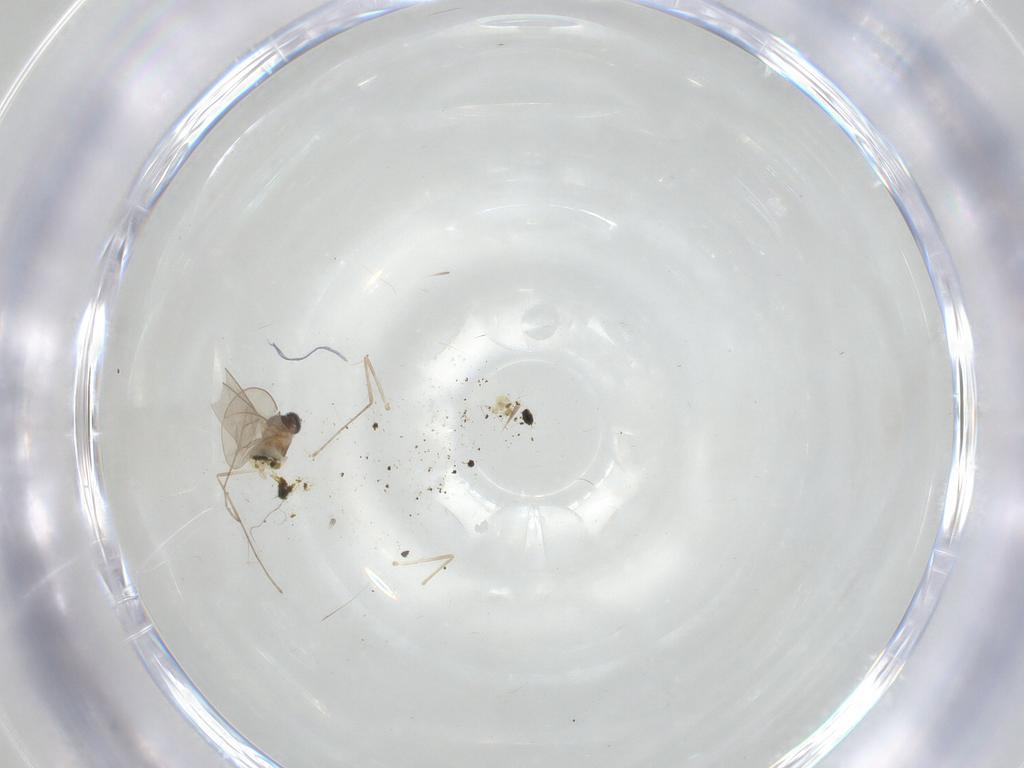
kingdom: Animalia
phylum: Arthropoda
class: Insecta
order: Diptera
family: Cecidomyiidae
